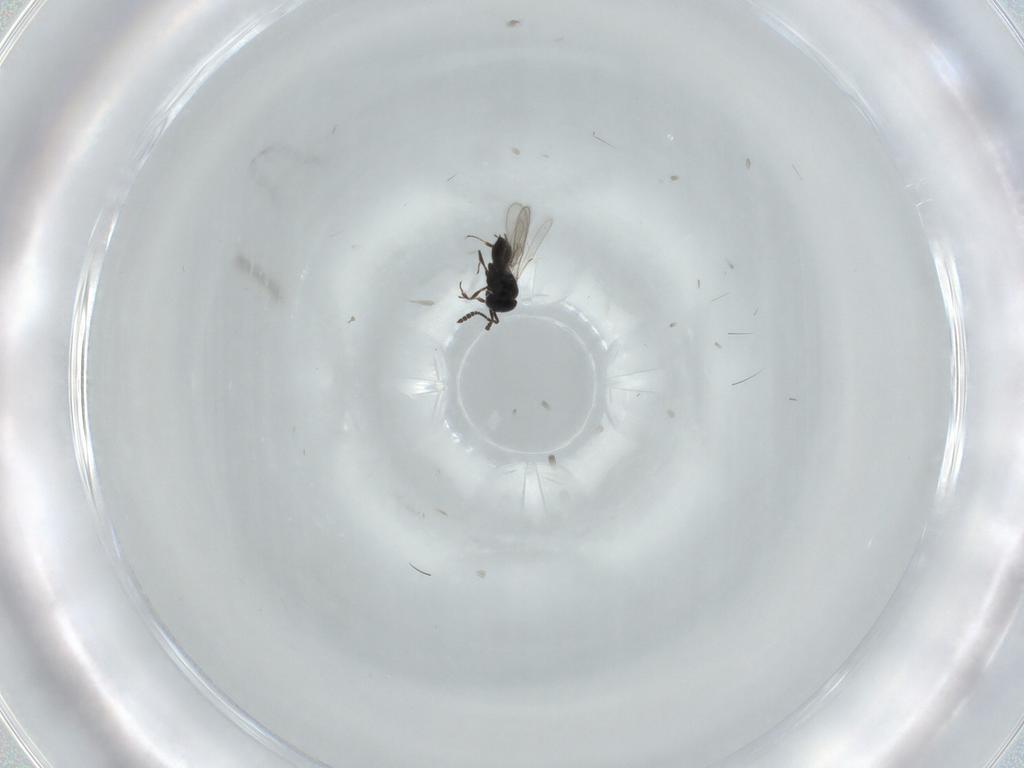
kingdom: Animalia
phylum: Arthropoda
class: Insecta
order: Hymenoptera
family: Scelionidae
